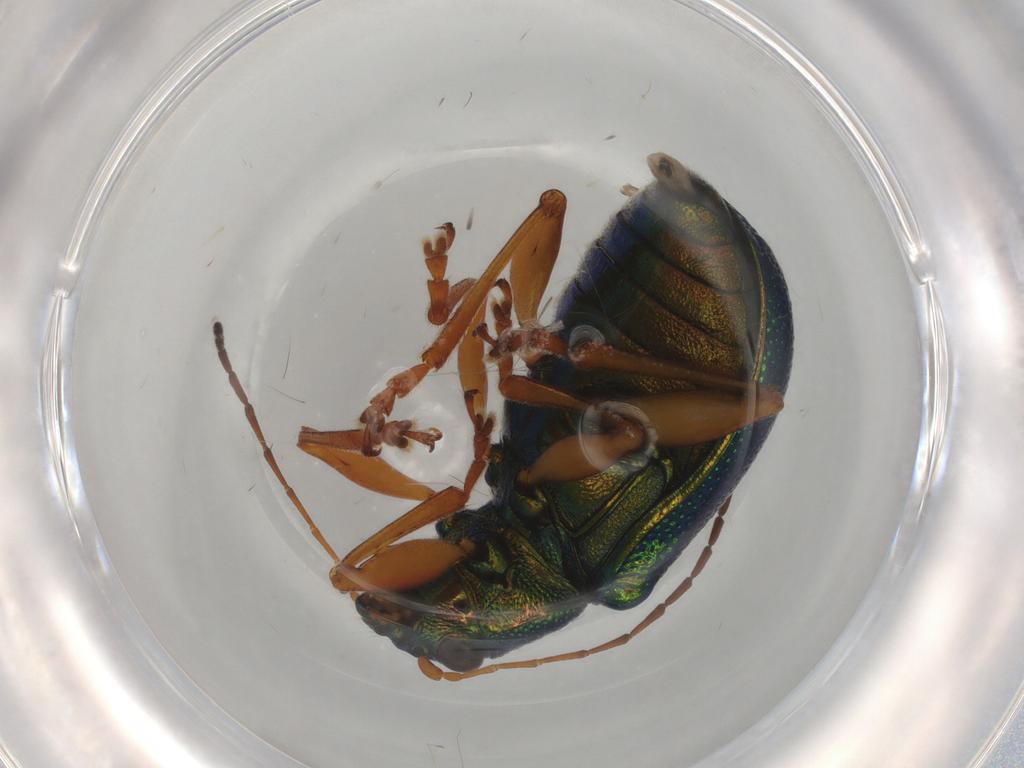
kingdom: Animalia
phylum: Arthropoda
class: Insecta
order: Coleoptera
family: Chrysomelidae
